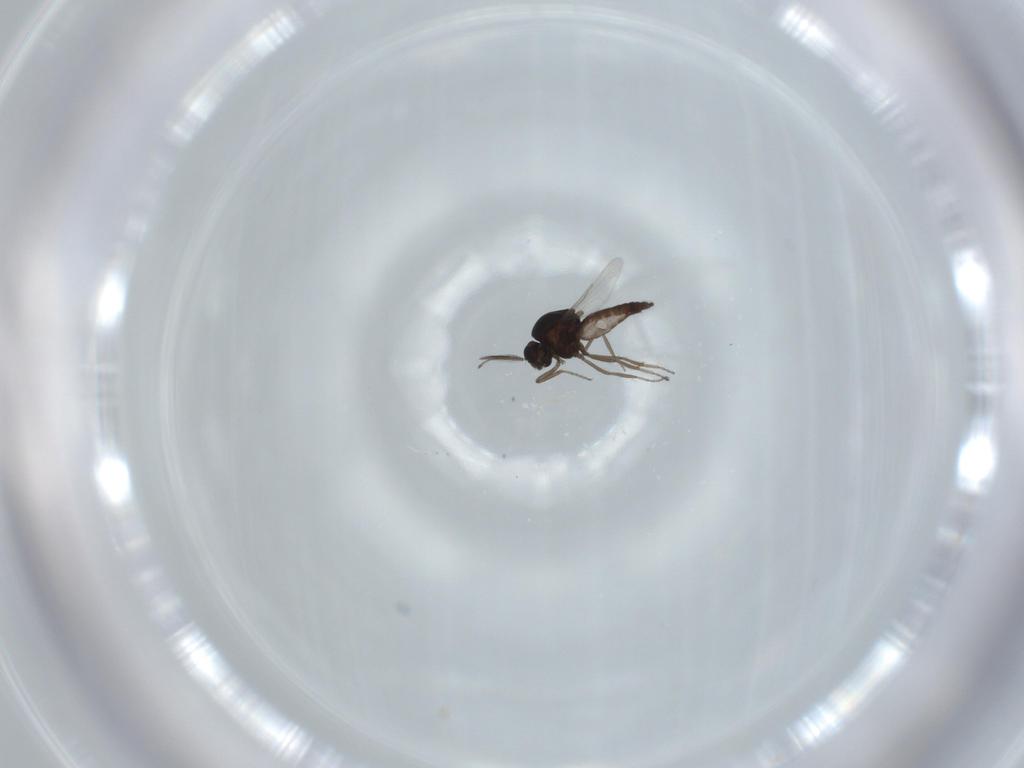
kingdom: Animalia
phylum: Arthropoda
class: Insecta
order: Diptera
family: Ceratopogonidae
